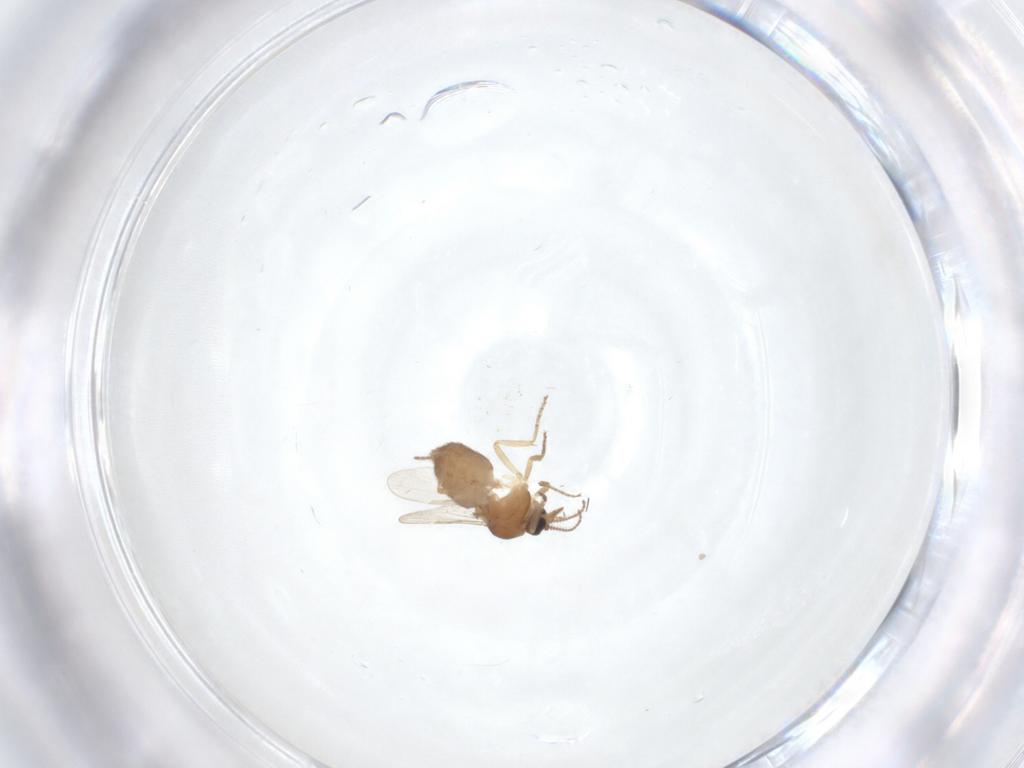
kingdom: Animalia
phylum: Arthropoda
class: Insecta
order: Diptera
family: Ceratopogonidae
